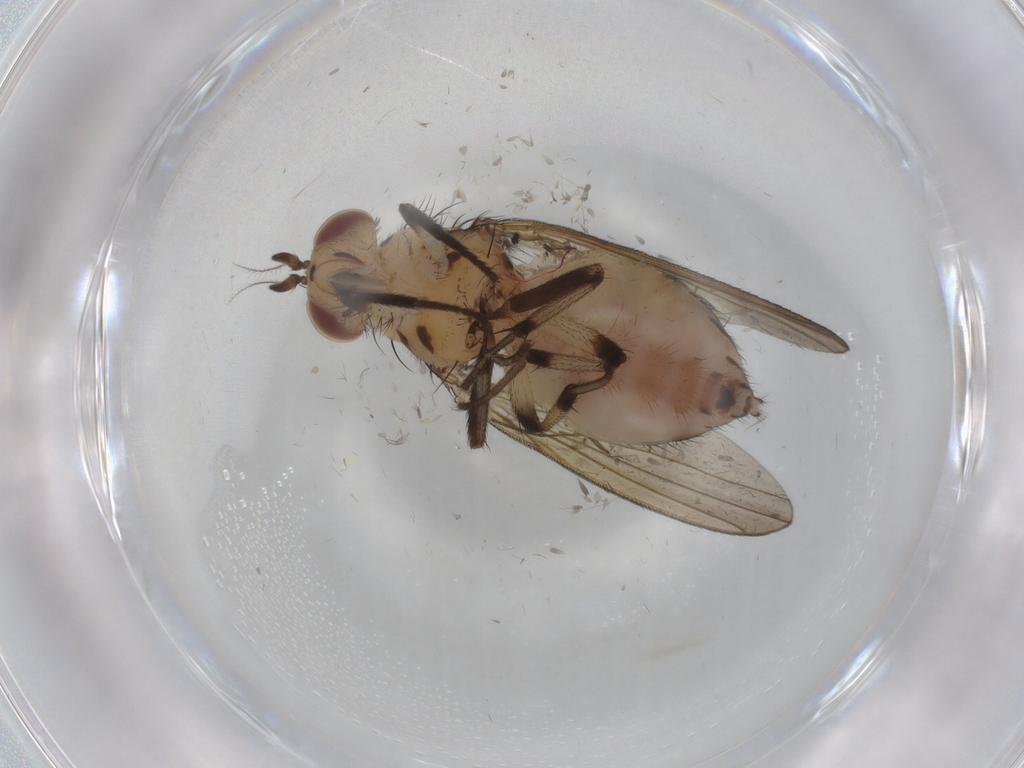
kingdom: Animalia
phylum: Arthropoda
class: Insecta
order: Diptera
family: Lauxaniidae
